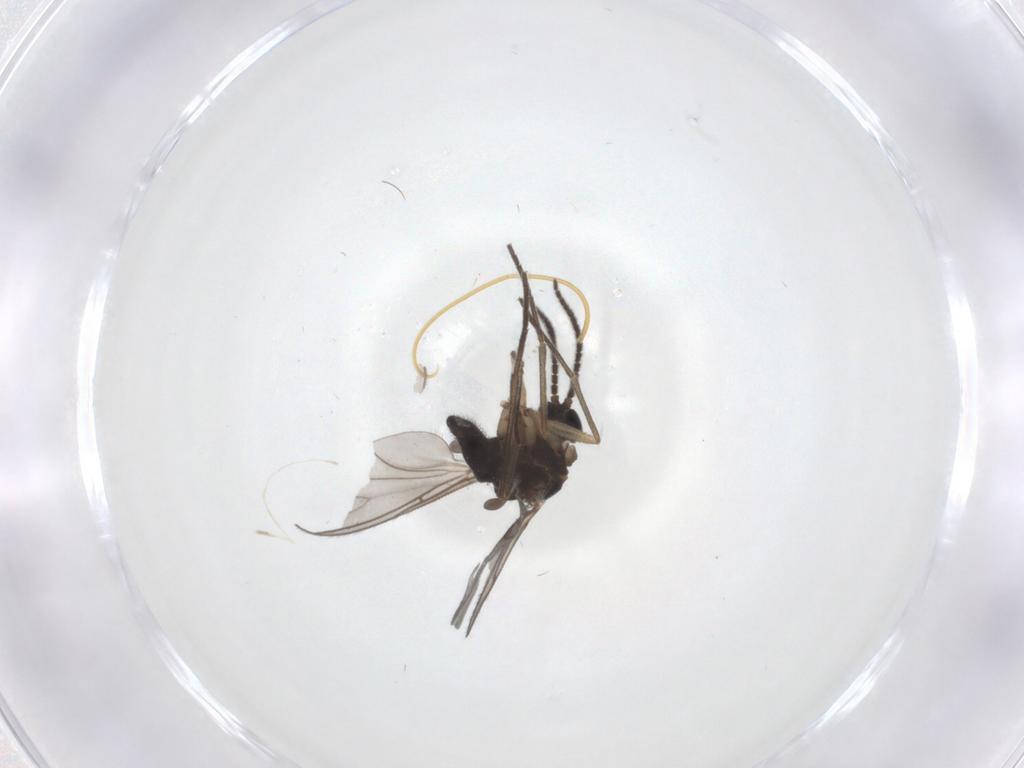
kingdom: Animalia
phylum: Arthropoda
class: Insecta
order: Diptera
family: Sciaridae
